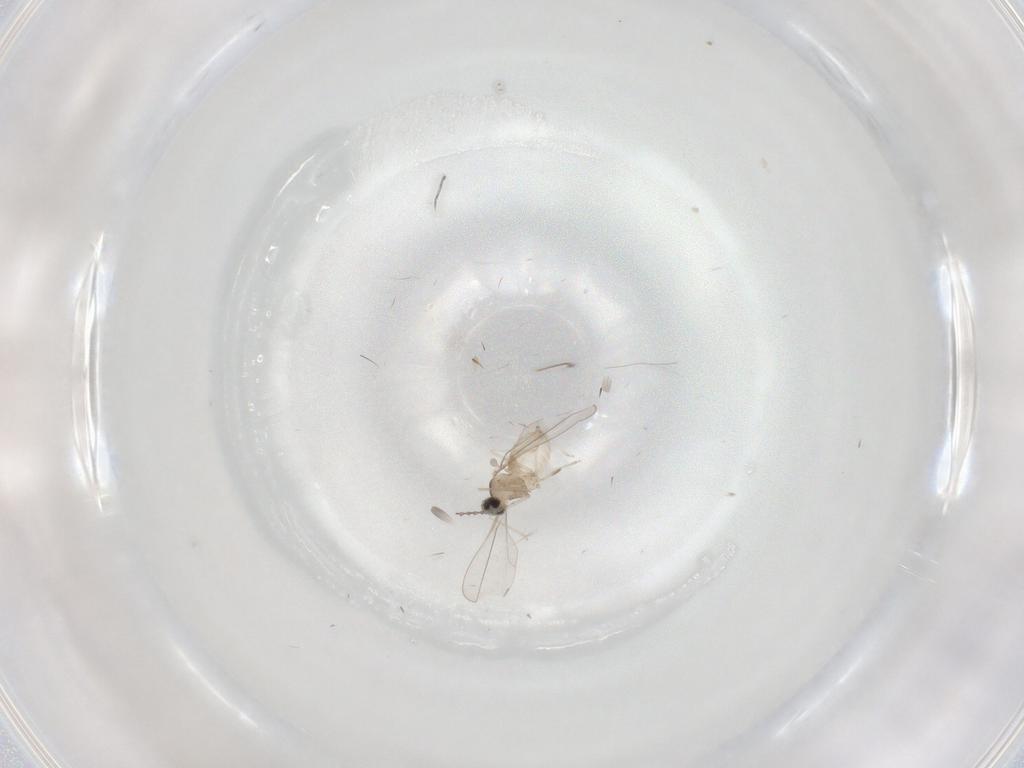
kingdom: Animalia
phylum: Arthropoda
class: Insecta
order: Diptera
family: Cecidomyiidae
